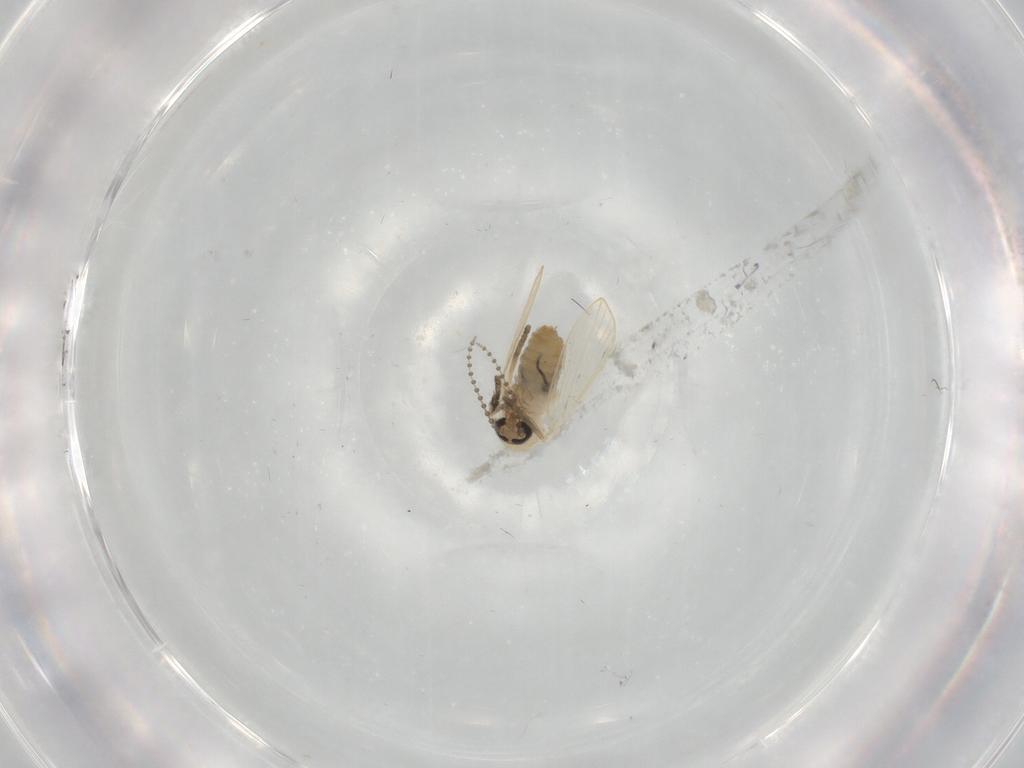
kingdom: Animalia
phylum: Arthropoda
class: Insecta
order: Diptera
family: Psychodidae
